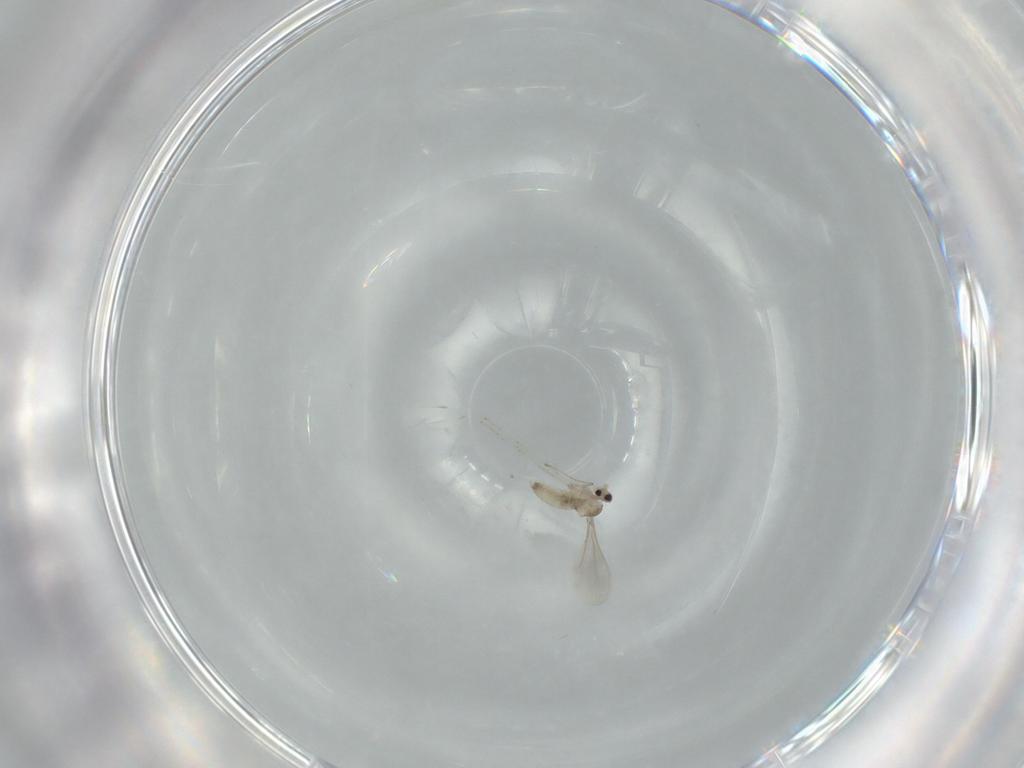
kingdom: Animalia
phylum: Arthropoda
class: Insecta
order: Diptera
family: Cecidomyiidae
